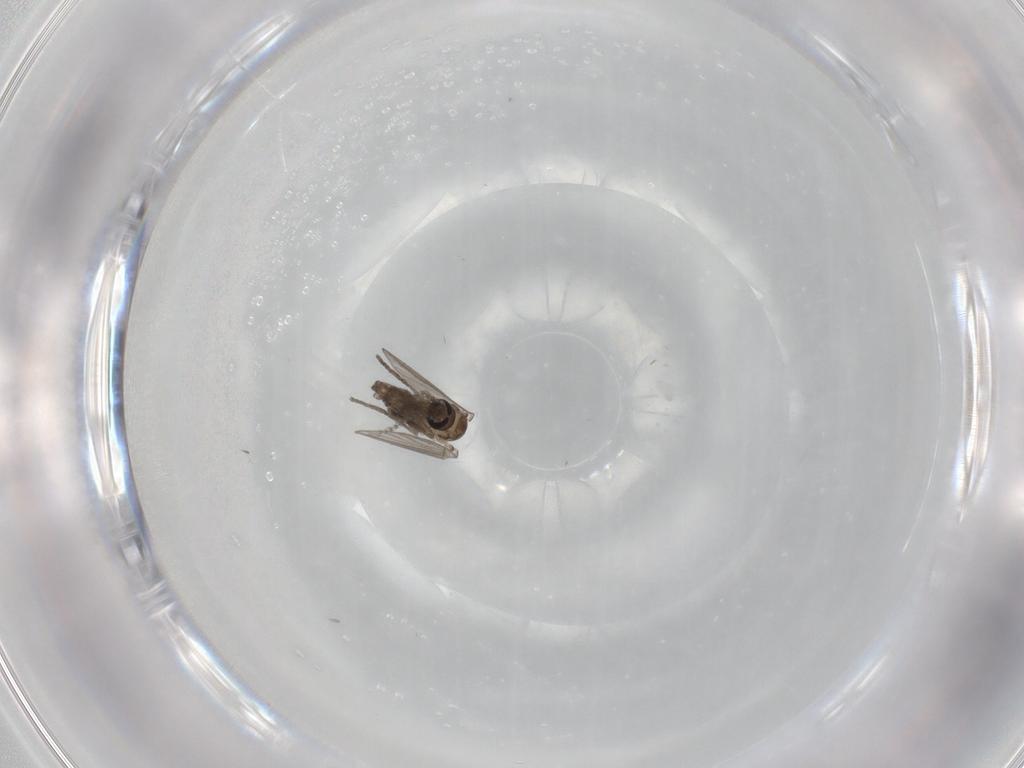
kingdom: Animalia
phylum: Arthropoda
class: Insecta
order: Diptera
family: Psychodidae
